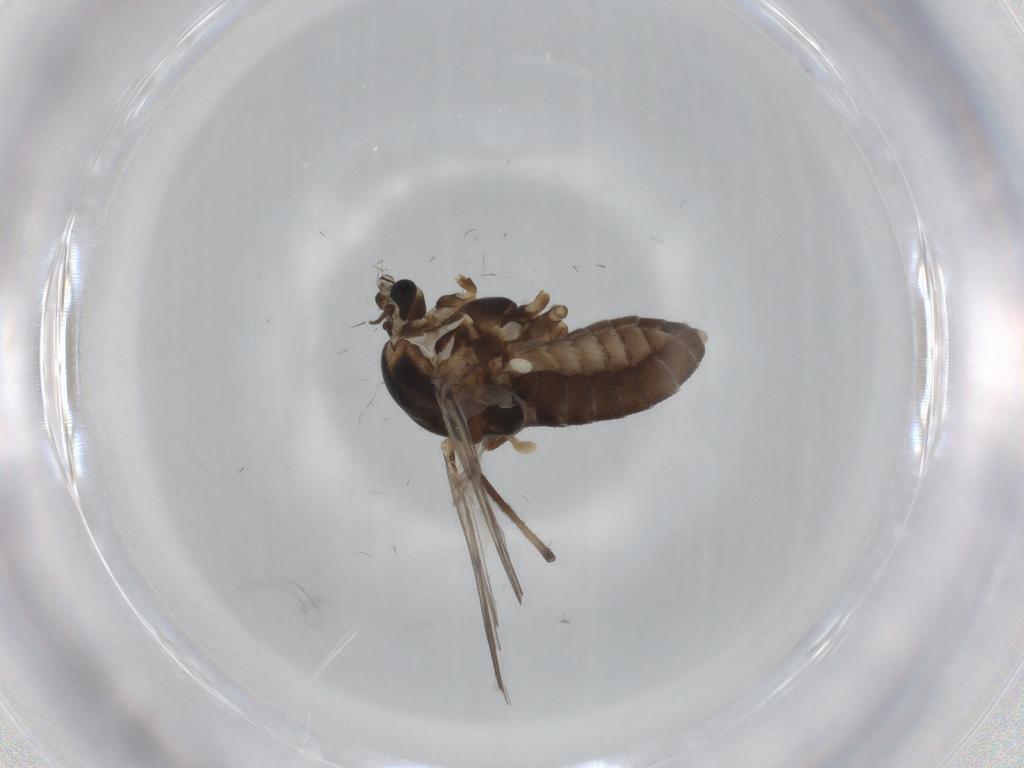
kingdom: Animalia
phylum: Arthropoda
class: Insecta
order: Diptera
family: Chironomidae
